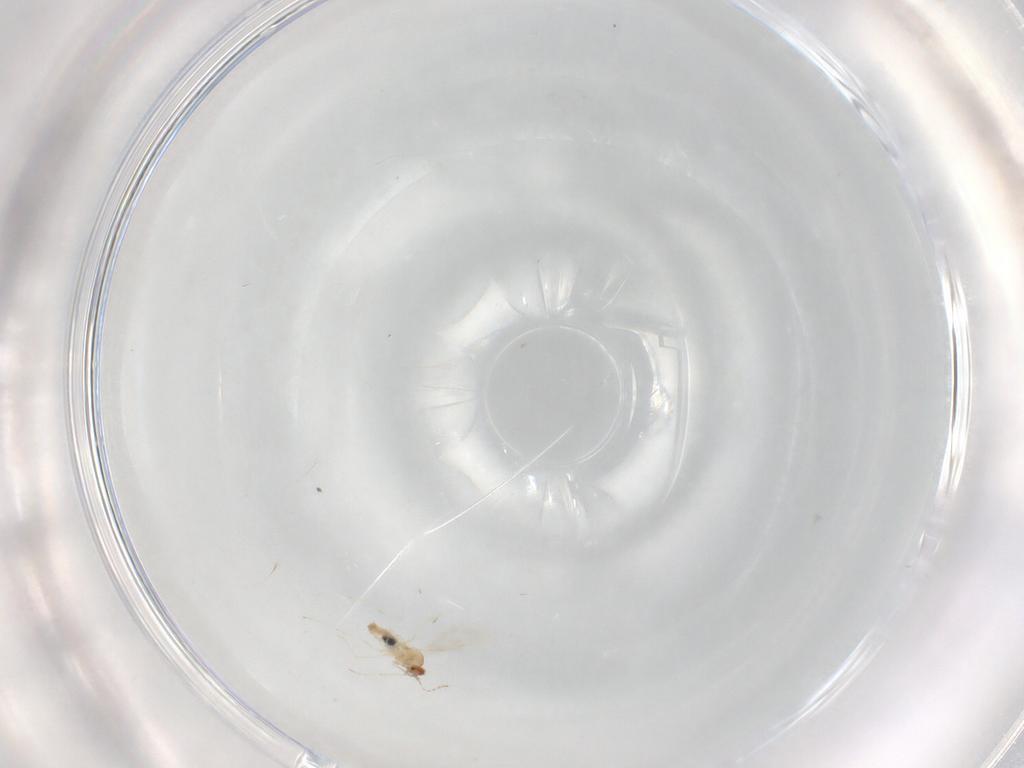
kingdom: Animalia
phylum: Arthropoda
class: Insecta
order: Diptera
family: Cecidomyiidae
